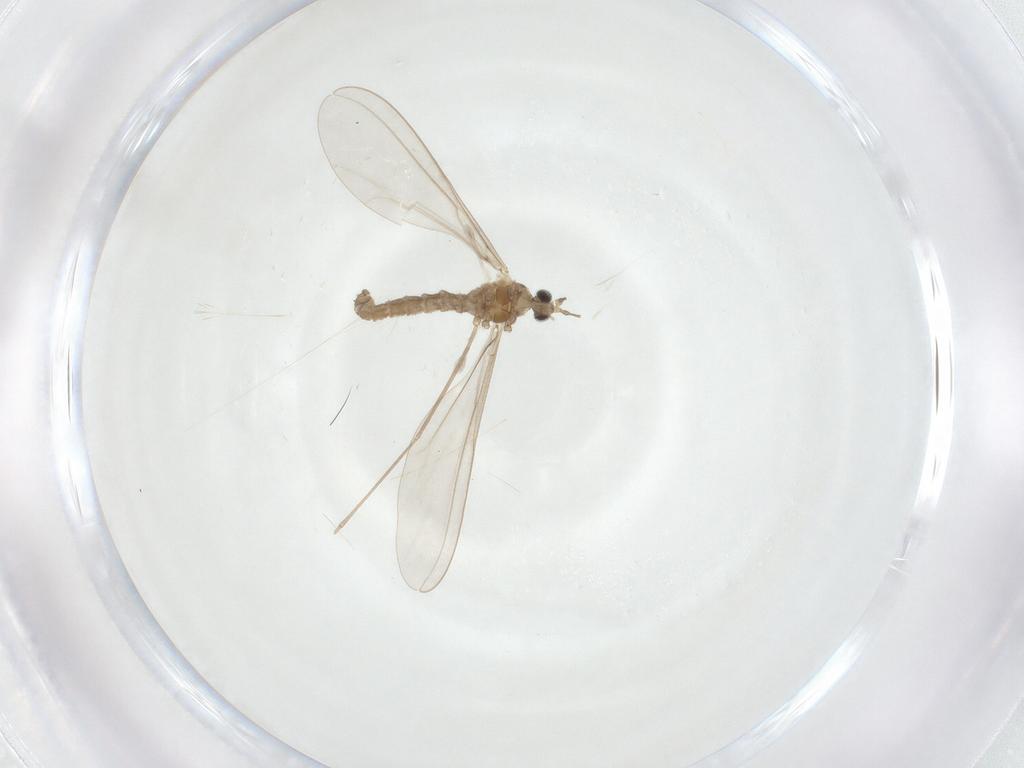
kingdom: Animalia
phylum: Arthropoda
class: Insecta
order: Diptera
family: Cecidomyiidae
